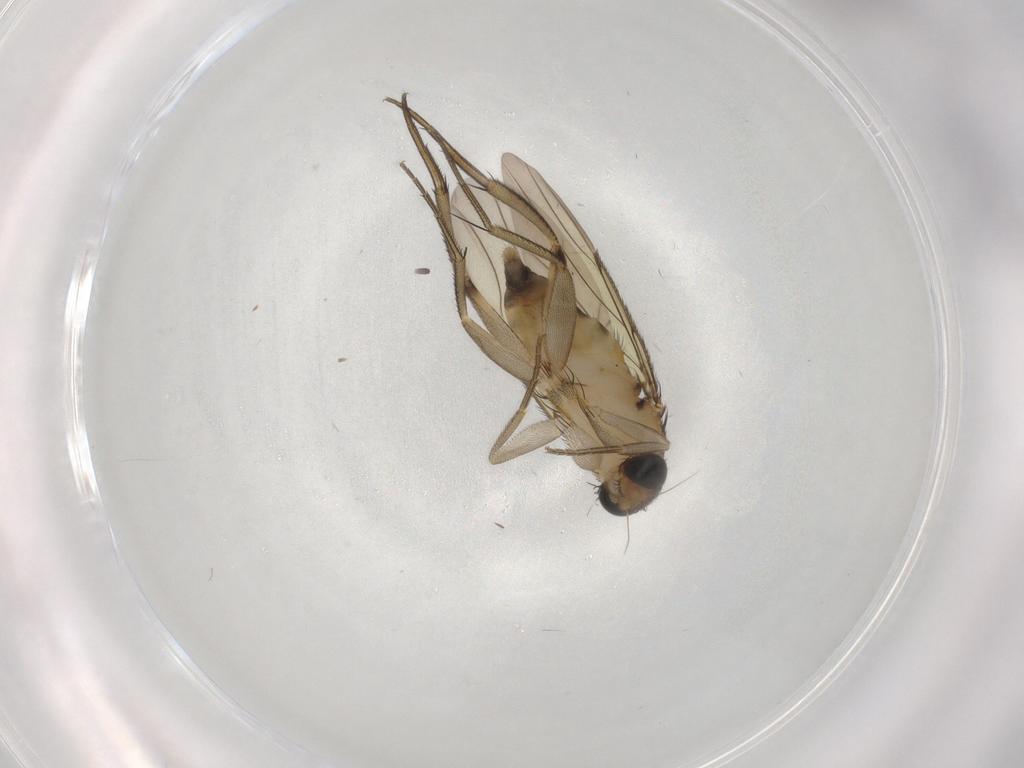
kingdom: Animalia
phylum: Arthropoda
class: Insecta
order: Diptera
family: Phoridae
